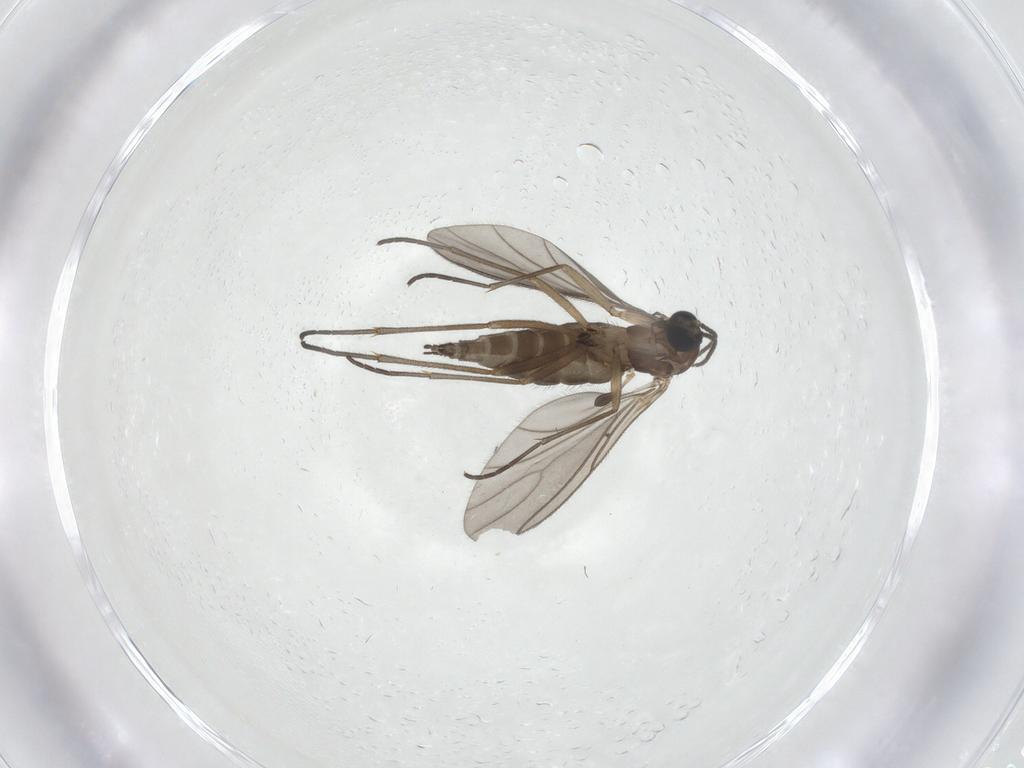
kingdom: Animalia
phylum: Arthropoda
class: Insecta
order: Diptera
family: Sciaridae
